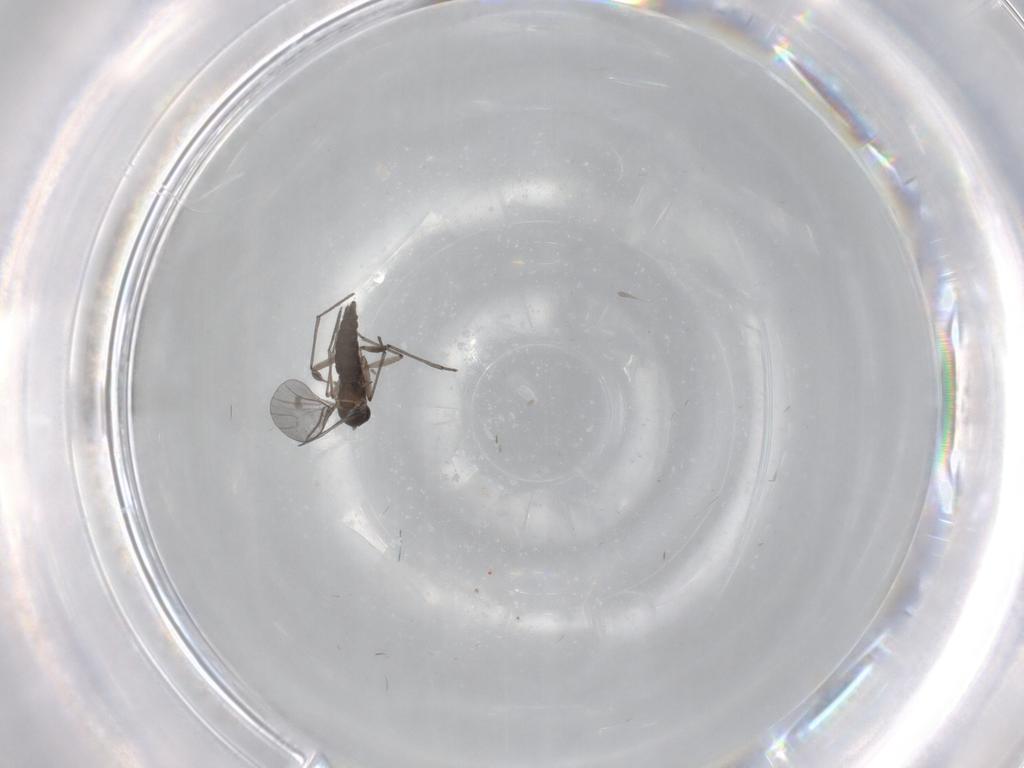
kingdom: Animalia
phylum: Arthropoda
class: Insecta
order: Diptera
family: Sciaridae
